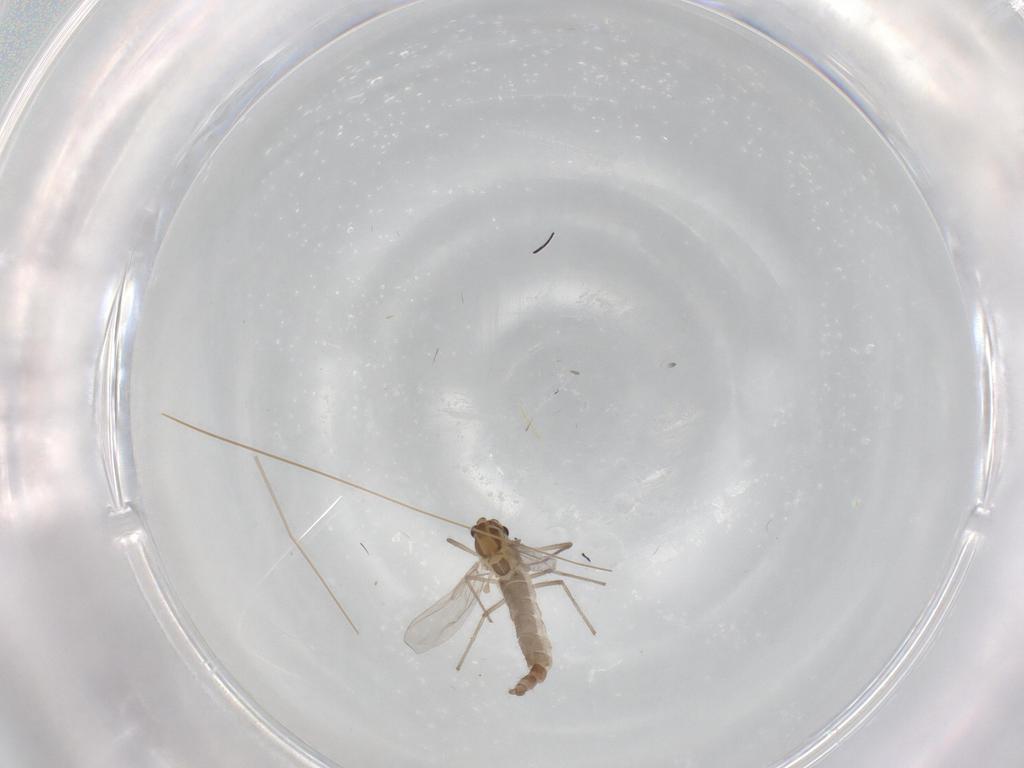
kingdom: Animalia
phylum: Arthropoda
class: Insecta
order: Diptera
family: Chironomidae
